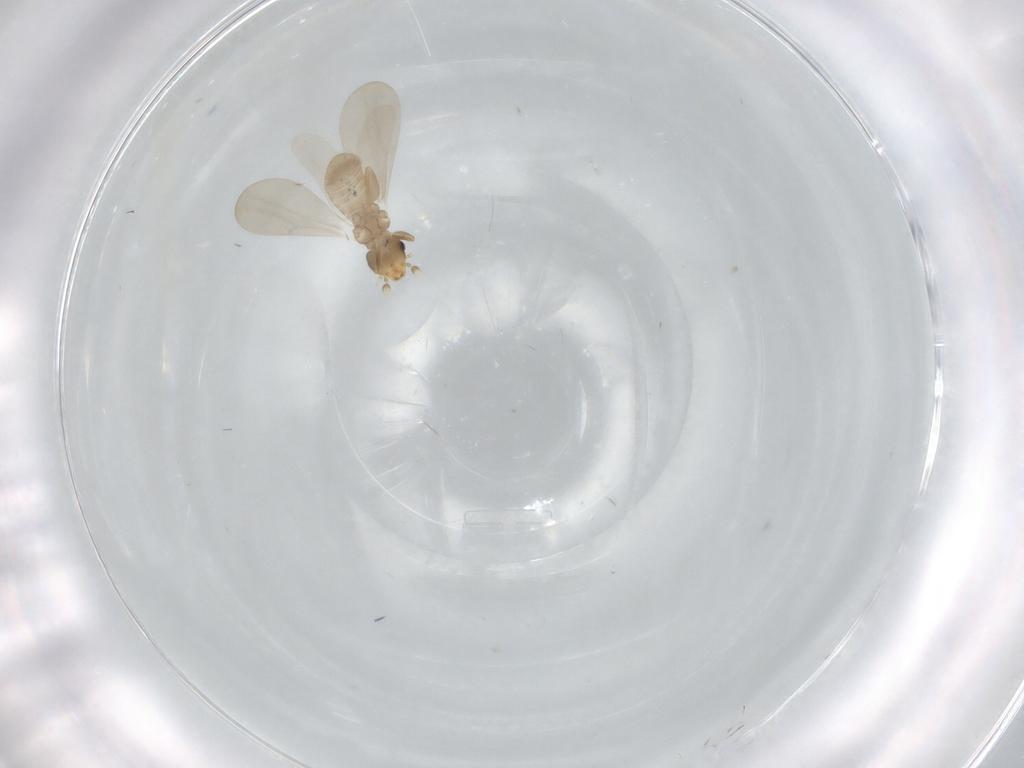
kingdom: Animalia
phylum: Arthropoda
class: Insecta
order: Psocodea
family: Liposcelididae
